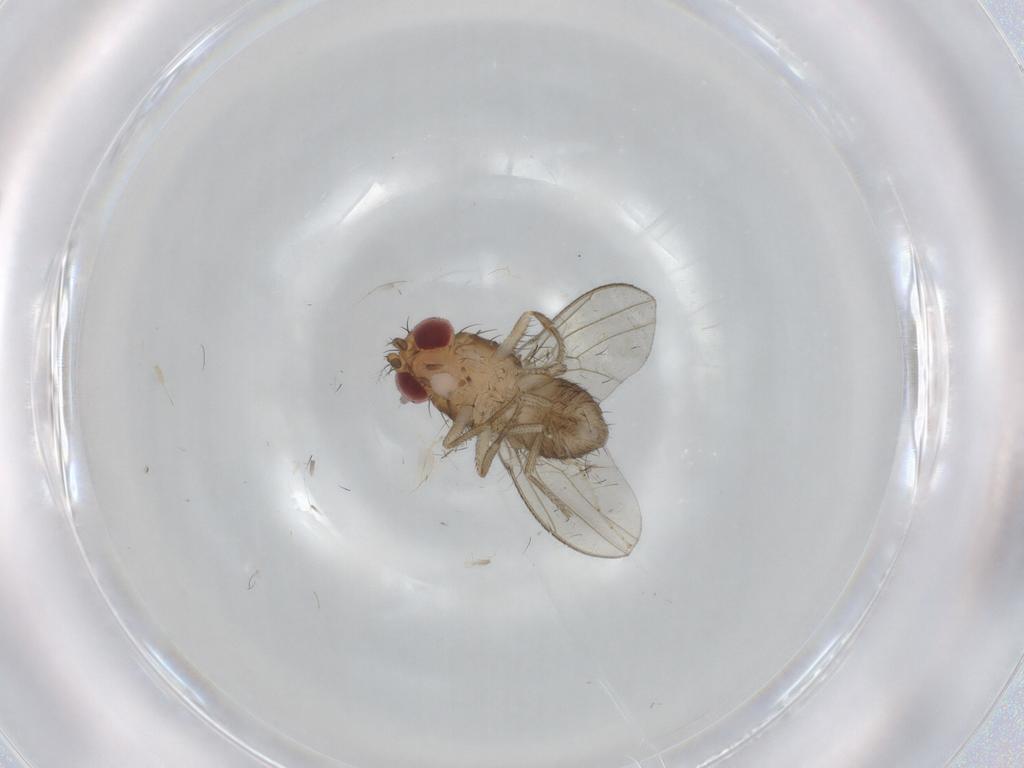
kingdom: Animalia
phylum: Arthropoda
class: Insecta
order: Diptera
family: Drosophilidae
